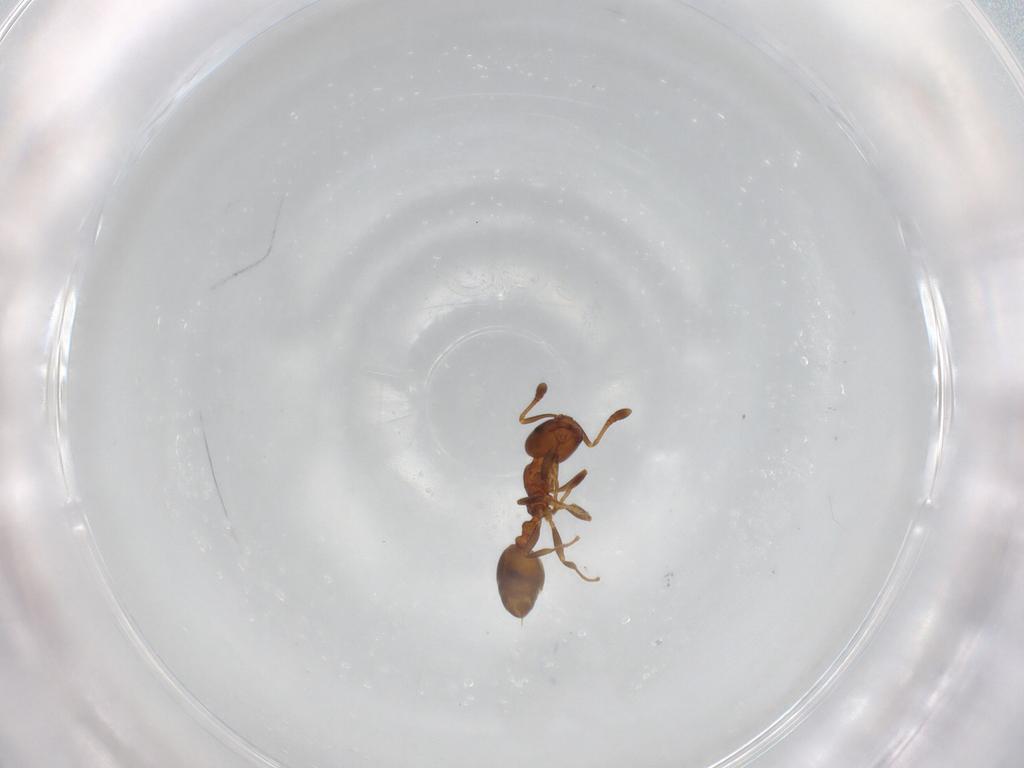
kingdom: Animalia
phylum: Arthropoda
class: Insecta
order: Hymenoptera
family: Formicidae
